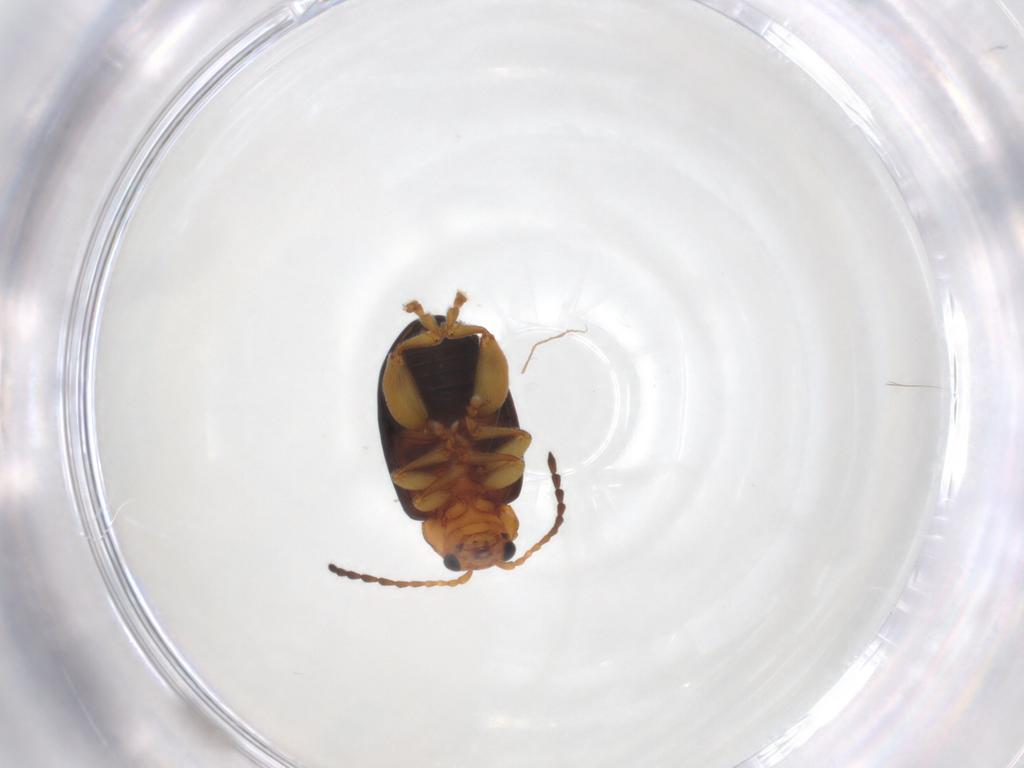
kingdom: Animalia
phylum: Arthropoda
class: Insecta
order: Coleoptera
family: Chrysomelidae
